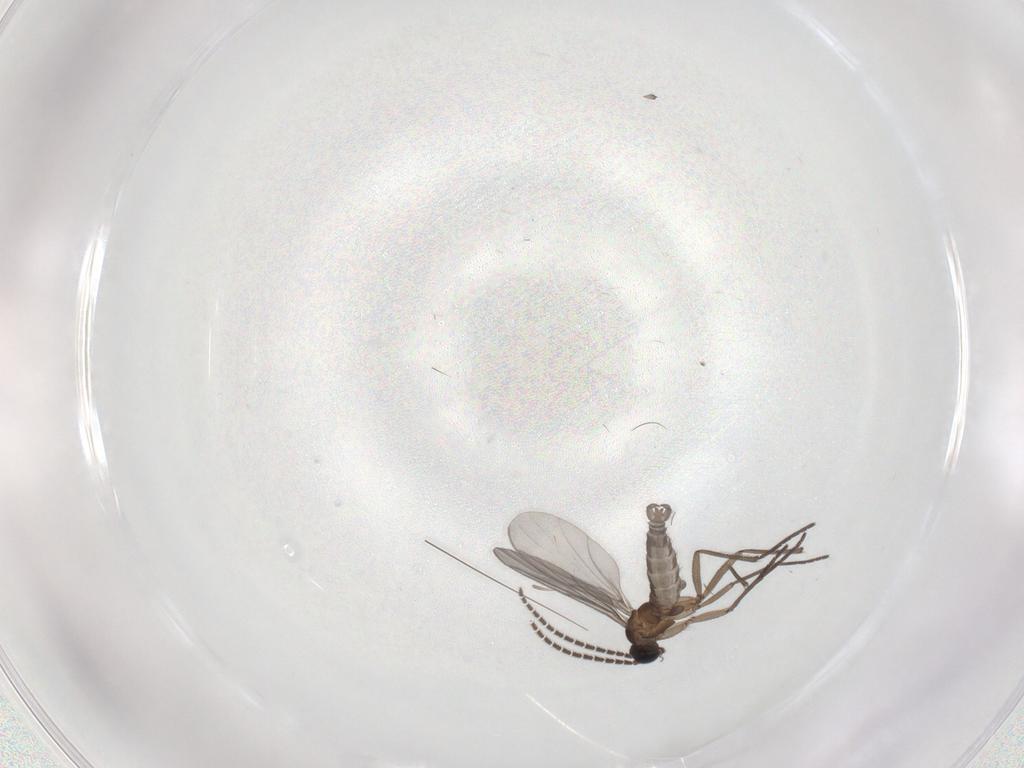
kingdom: Animalia
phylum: Arthropoda
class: Insecta
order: Diptera
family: Sciaridae
